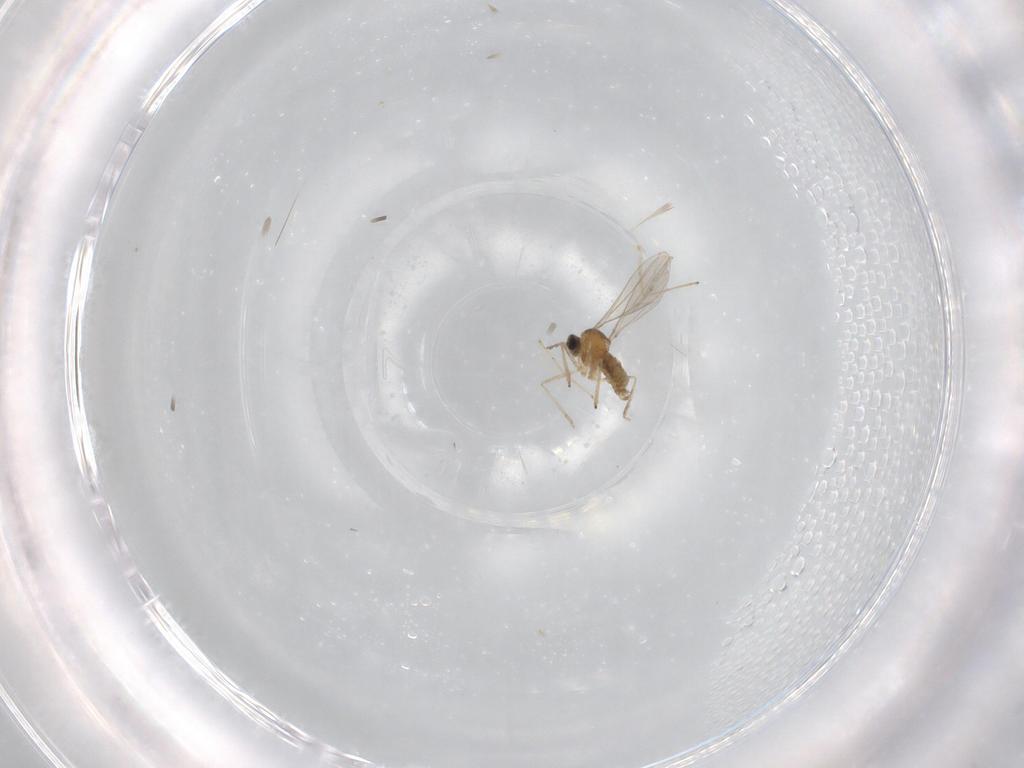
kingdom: Animalia
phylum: Arthropoda
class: Insecta
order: Diptera
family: Cecidomyiidae
